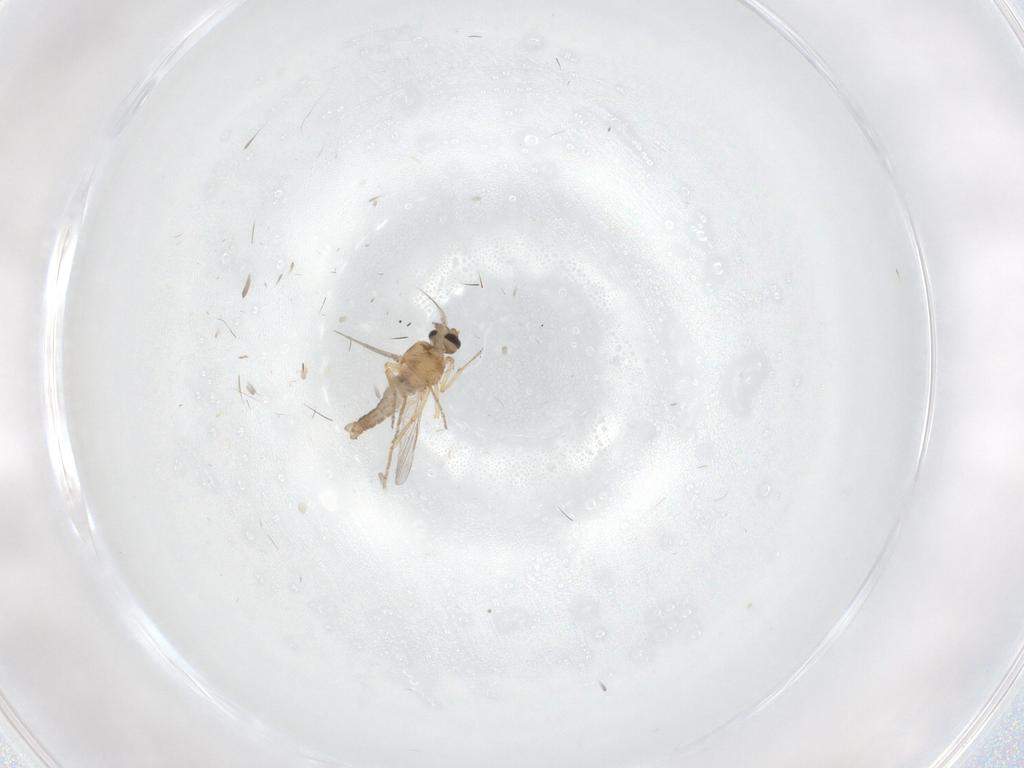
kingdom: Animalia
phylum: Arthropoda
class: Insecta
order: Diptera
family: Ceratopogonidae
